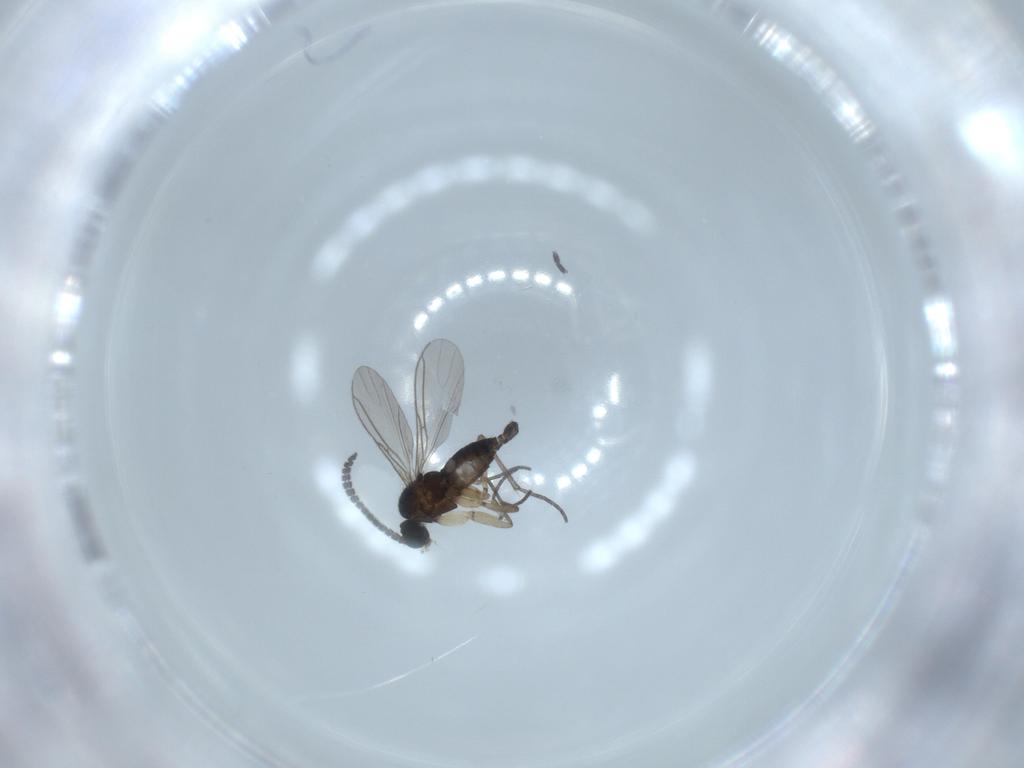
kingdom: Animalia
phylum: Arthropoda
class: Insecta
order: Diptera
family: Sciaridae
